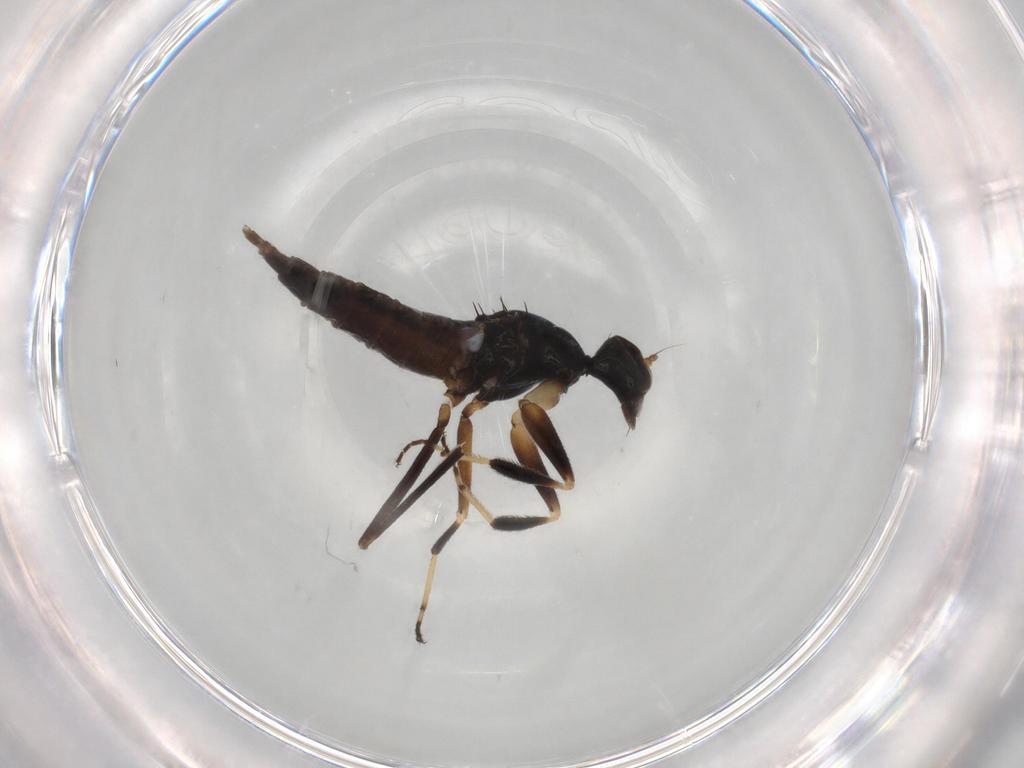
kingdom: Animalia
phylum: Arthropoda
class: Insecta
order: Diptera
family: Hybotidae
